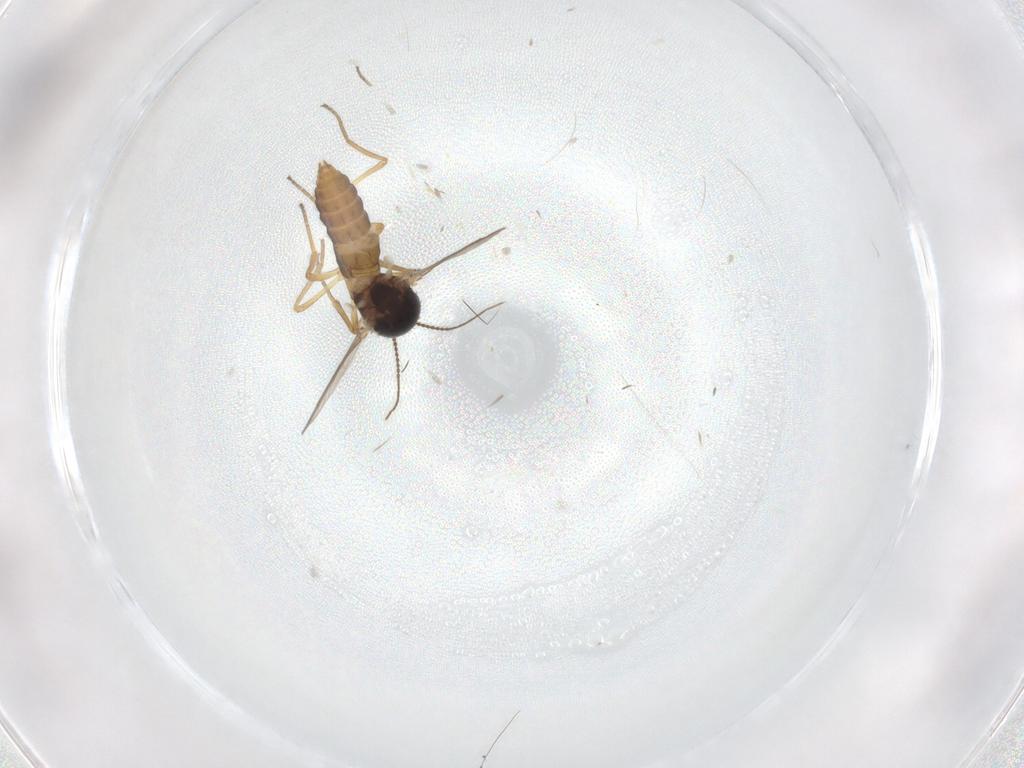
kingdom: Animalia
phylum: Arthropoda
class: Insecta
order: Diptera
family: Ceratopogonidae
